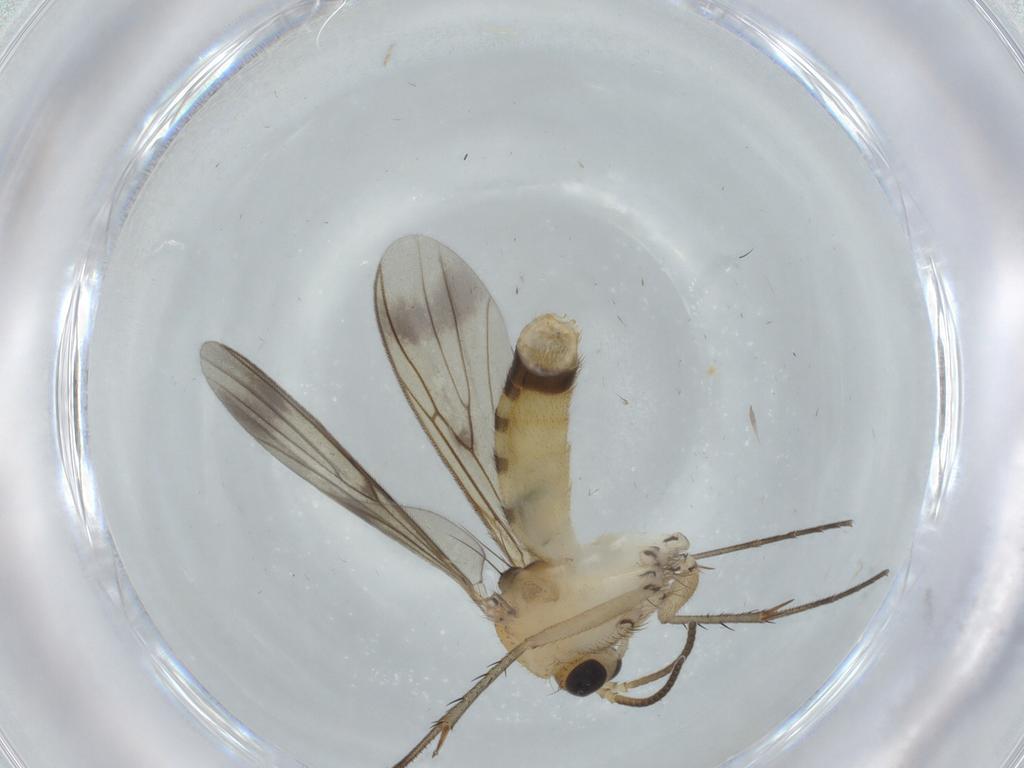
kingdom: Animalia
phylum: Arthropoda
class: Insecta
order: Diptera
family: Mycetophilidae
